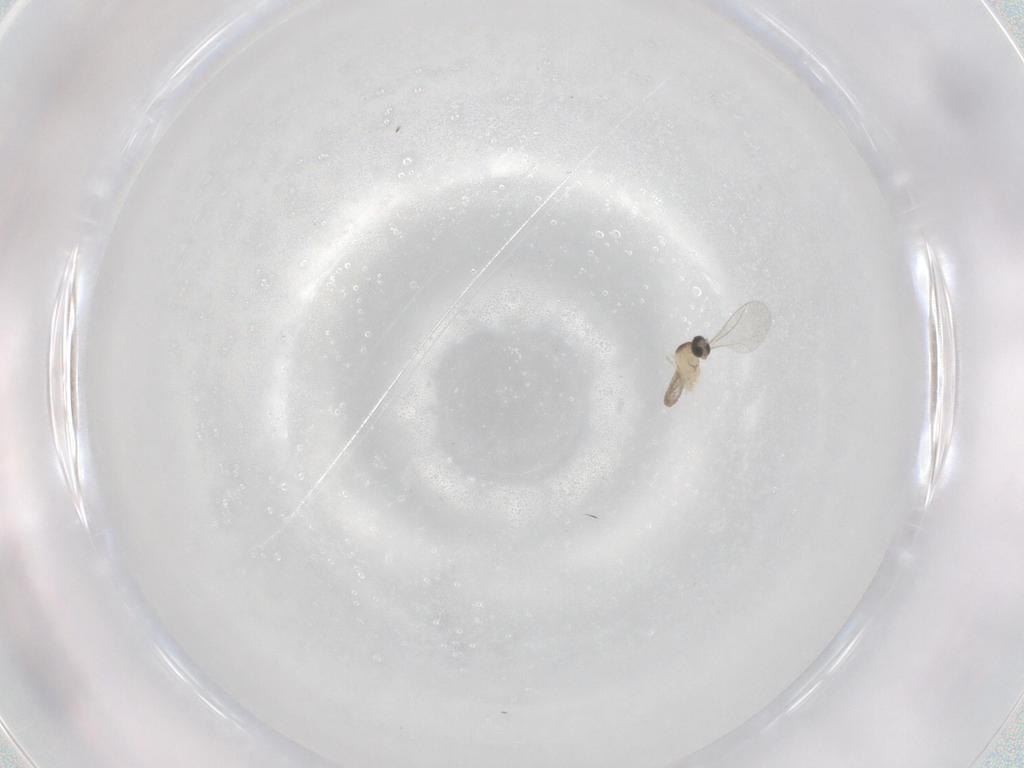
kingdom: Animalia
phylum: Arthropoda
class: Insecta
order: Diptera
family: Cecidomyiidae
